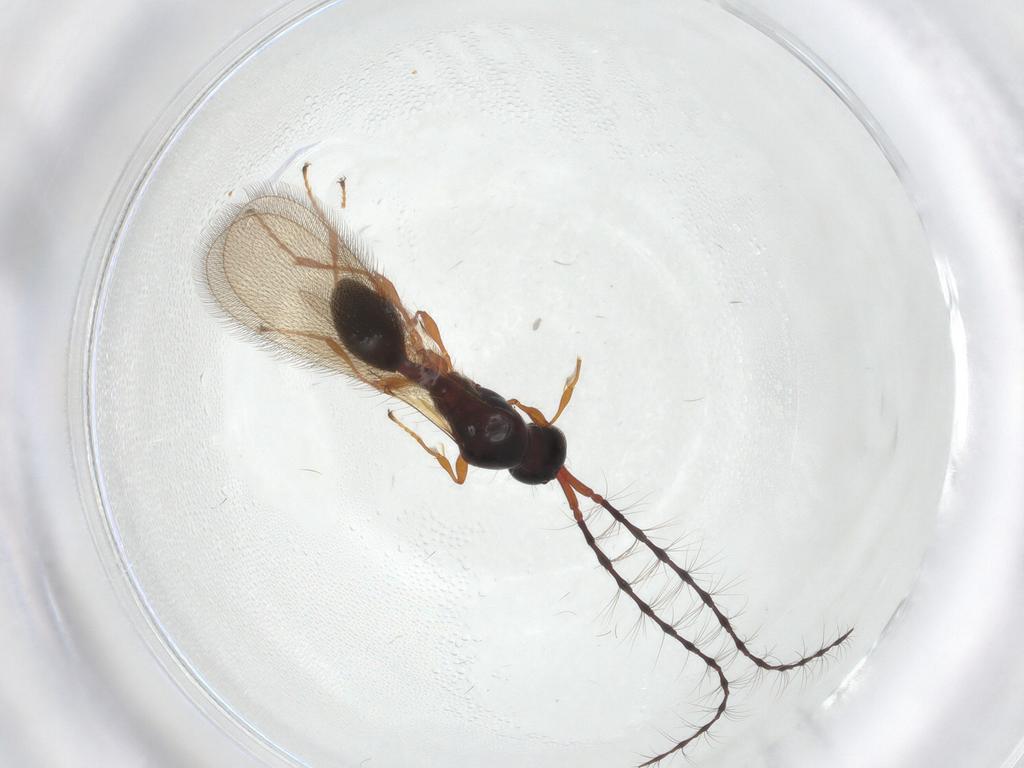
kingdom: Animalia
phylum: Arthropoda
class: Insecta
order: Hymenoptera
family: Diapriidae
